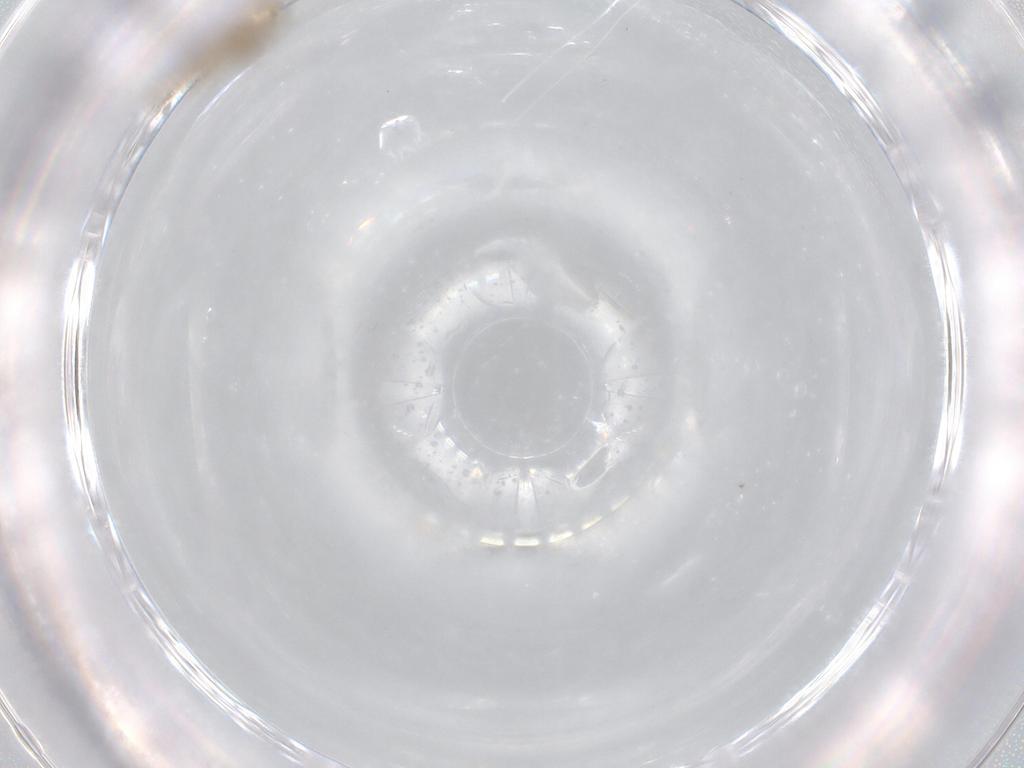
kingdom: Animalia
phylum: Arthropoda
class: Insecta
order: Diptera
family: Chironomidae
